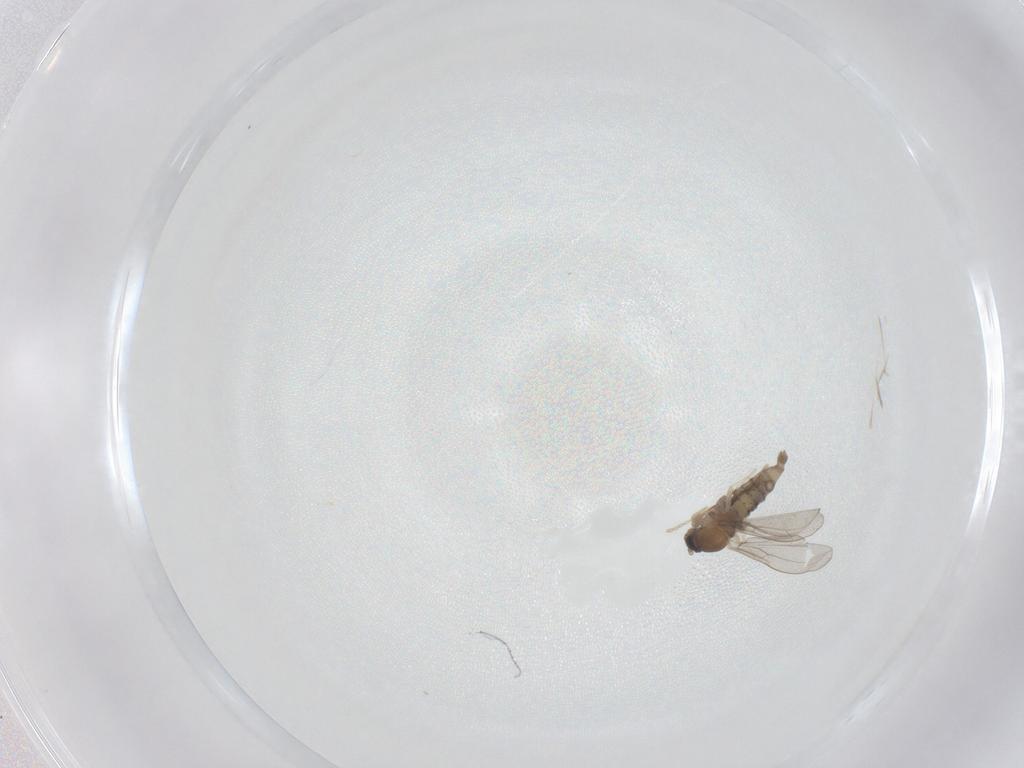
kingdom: Animalia
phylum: Arthropoda
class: Insecta
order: Diptera
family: Cecidomyiidae
